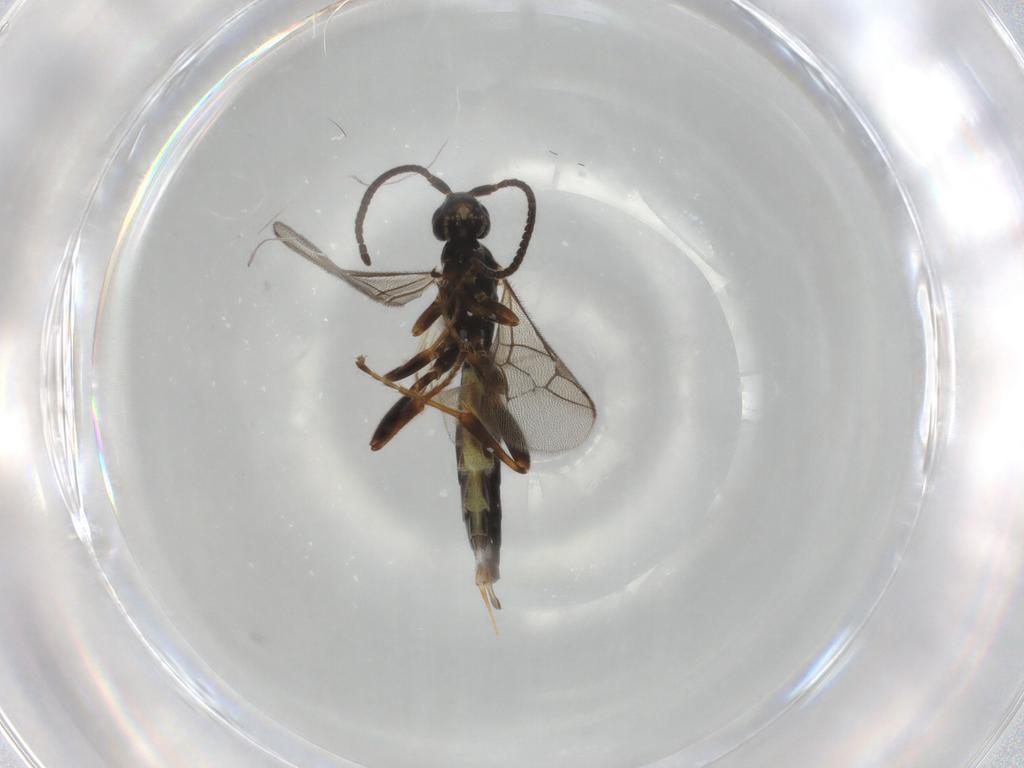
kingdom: Animalia
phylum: Arthropoda
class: Insecta
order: Hymenoptera
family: Ichneumonidae
